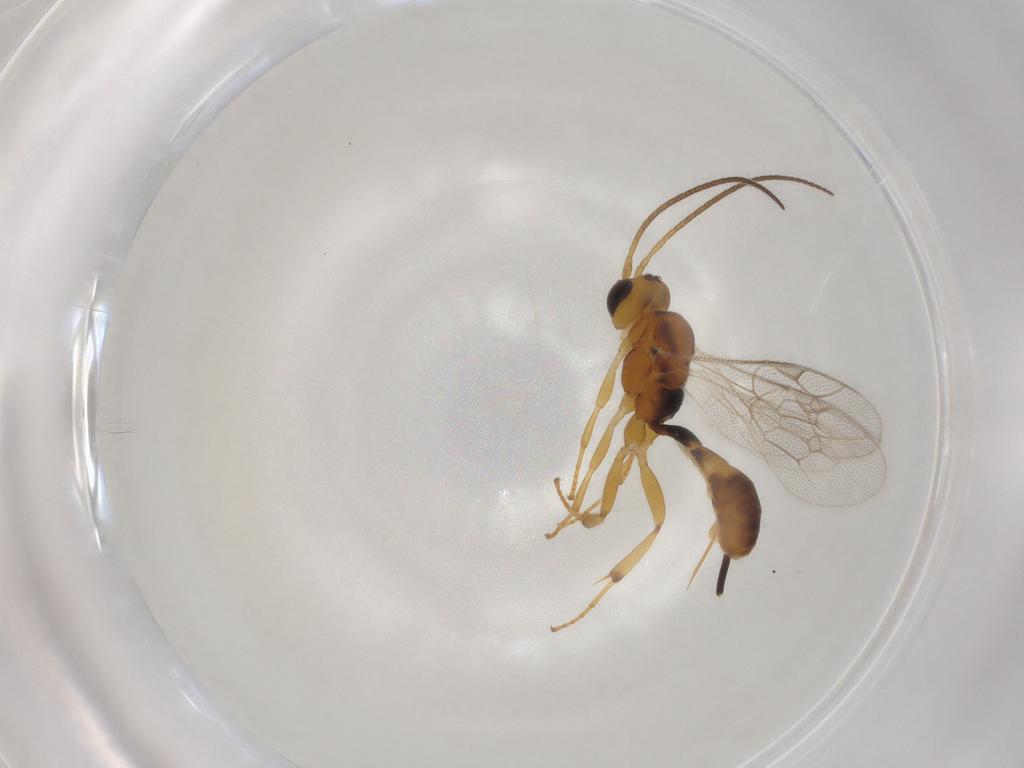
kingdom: Animalia
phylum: Arthropoda
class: Insecta
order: Hymenoptera
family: Ichneumonidae
